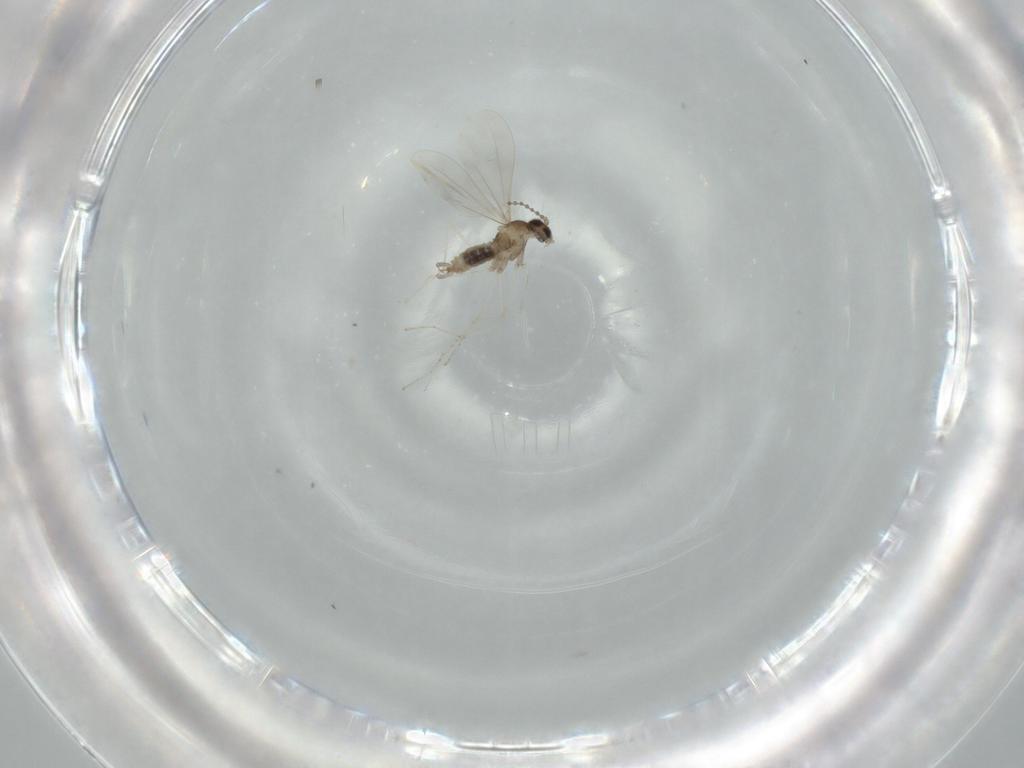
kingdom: Animalia
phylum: Arthropoda
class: Insecta
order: Diptera
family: Cecidomyiidae
